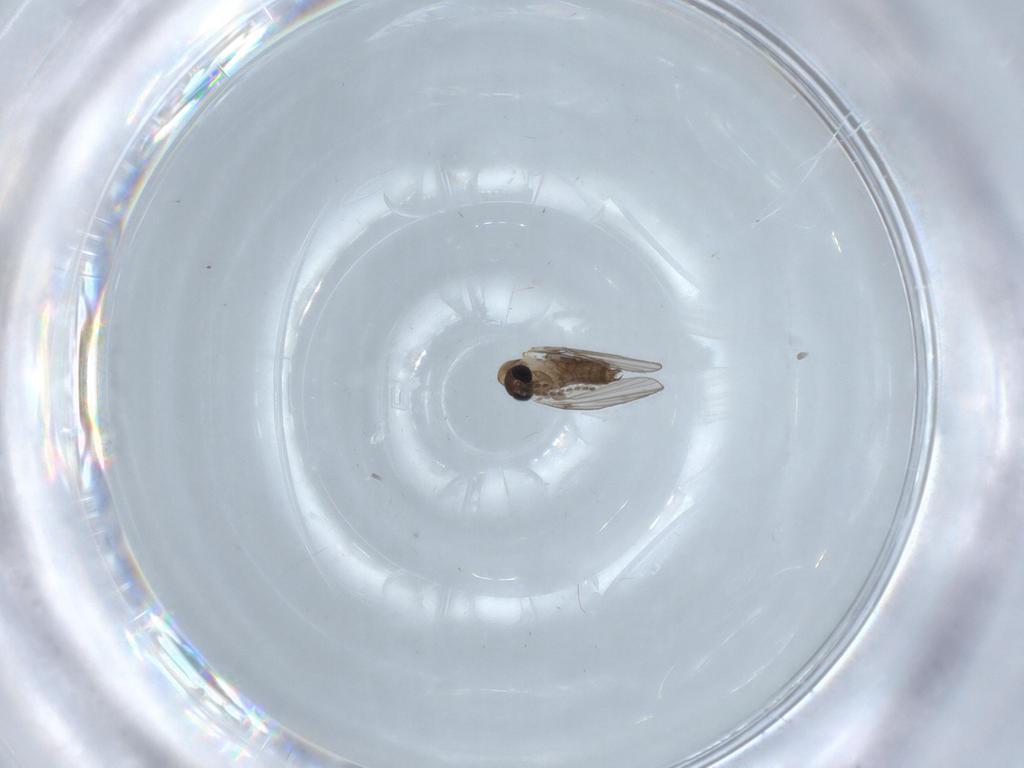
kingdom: Animalia
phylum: Arthropoda
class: Insecta
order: Diptera
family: Psychodidae
